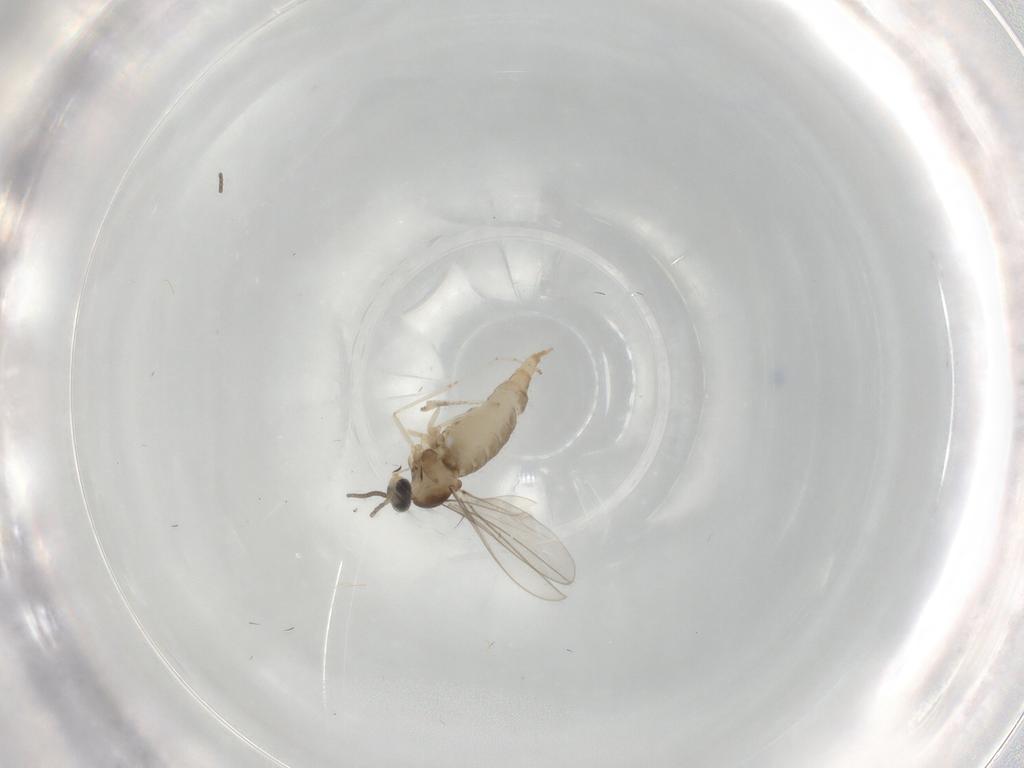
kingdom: Animalia
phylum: Arthropoda
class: Insecta
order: Diptera
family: Cecidomyiidae
